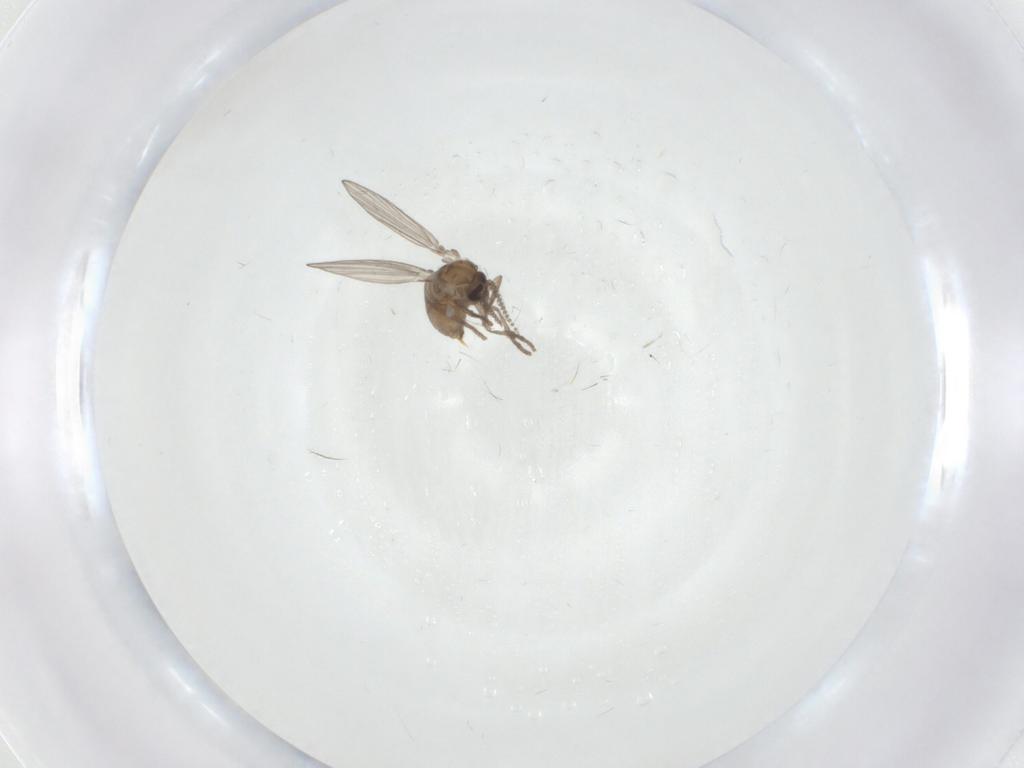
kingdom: Animalia
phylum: Arthropoda
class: Insecta
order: Diptera
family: Psychodidae
